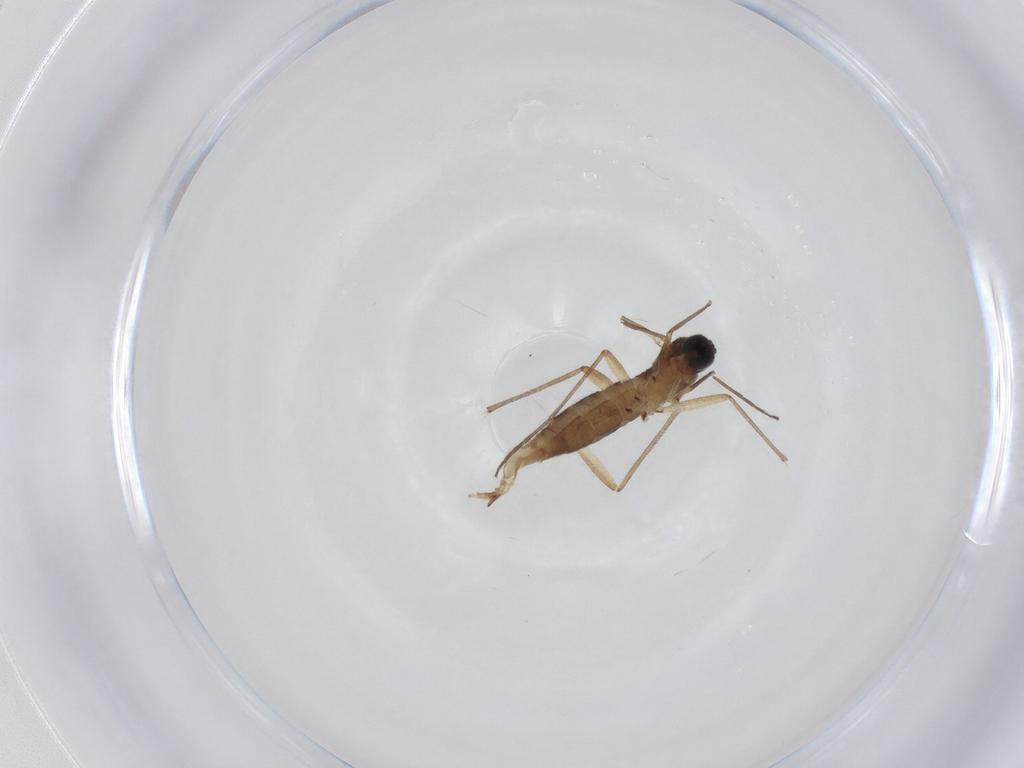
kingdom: Animalia
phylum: Arthropoda
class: Insecta
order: Diptera
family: Sciaridae
